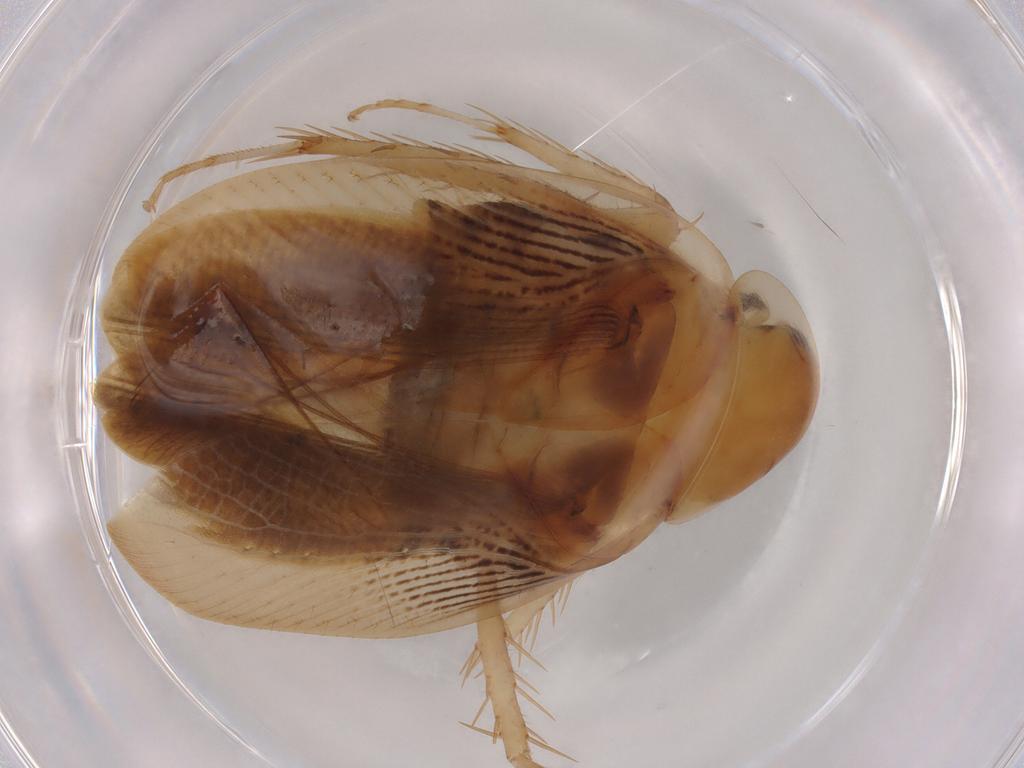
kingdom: Animalia
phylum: Arthropoda
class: Insecta
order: Blattodea
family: Ectobiidae
